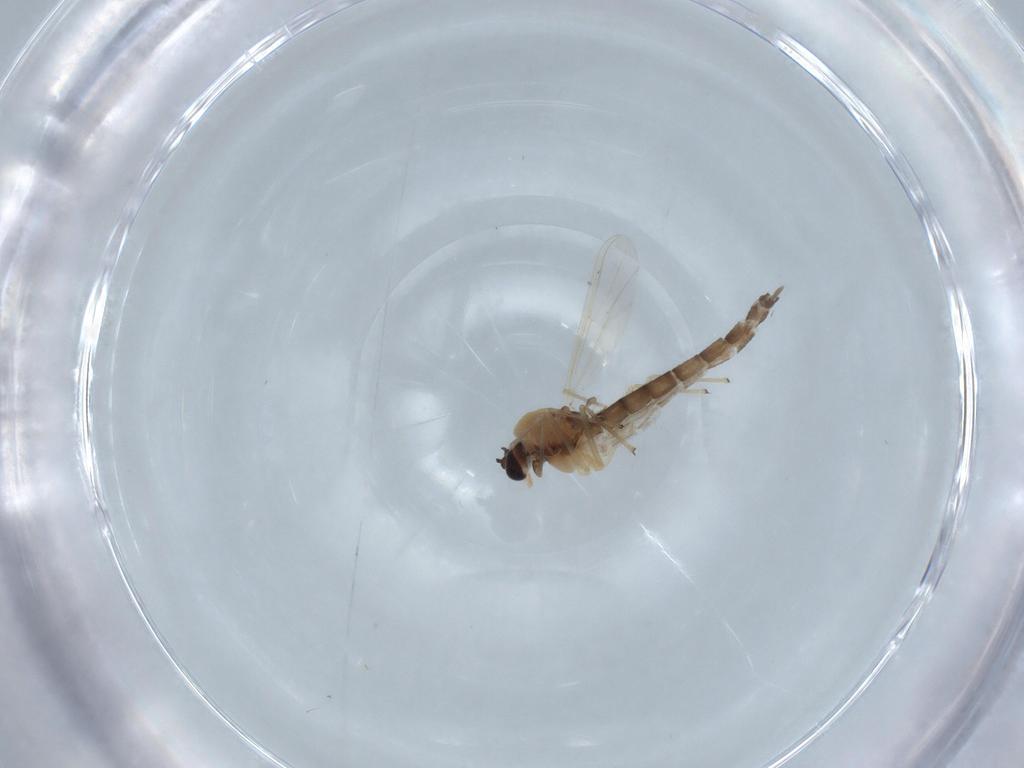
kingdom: Animalia
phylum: Arthropoda
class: Insecta
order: Diptera
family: Chironomidae
